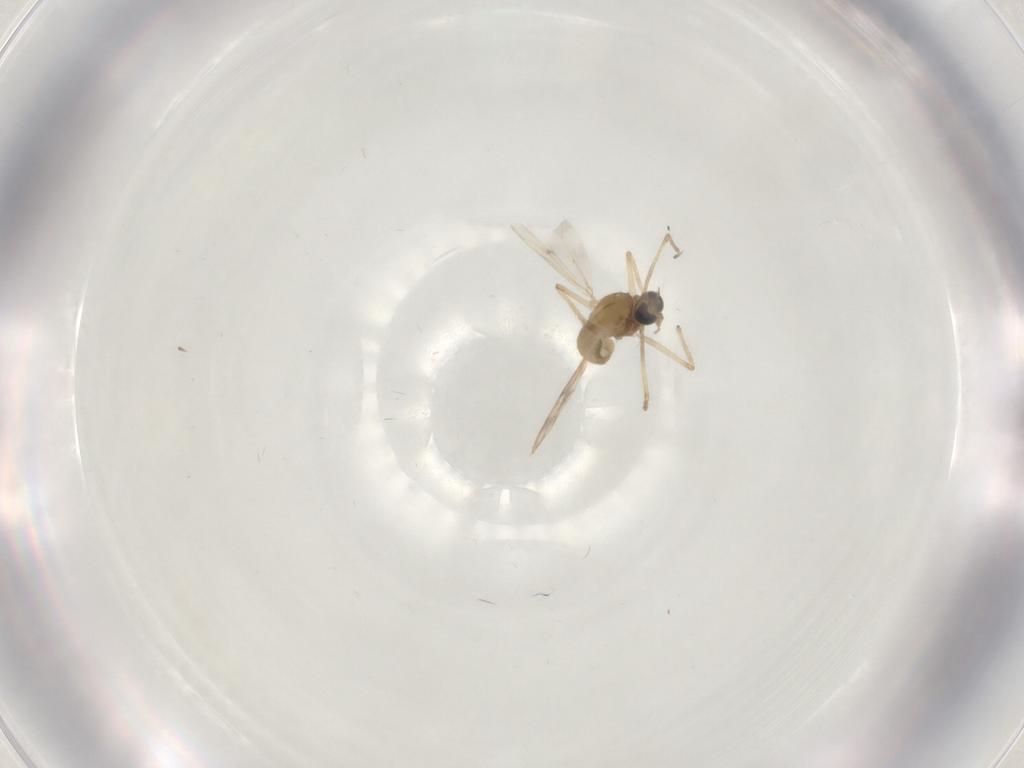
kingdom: Animalia
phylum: Arthropoda
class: Insecta
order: Diptera
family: Chironomidae
